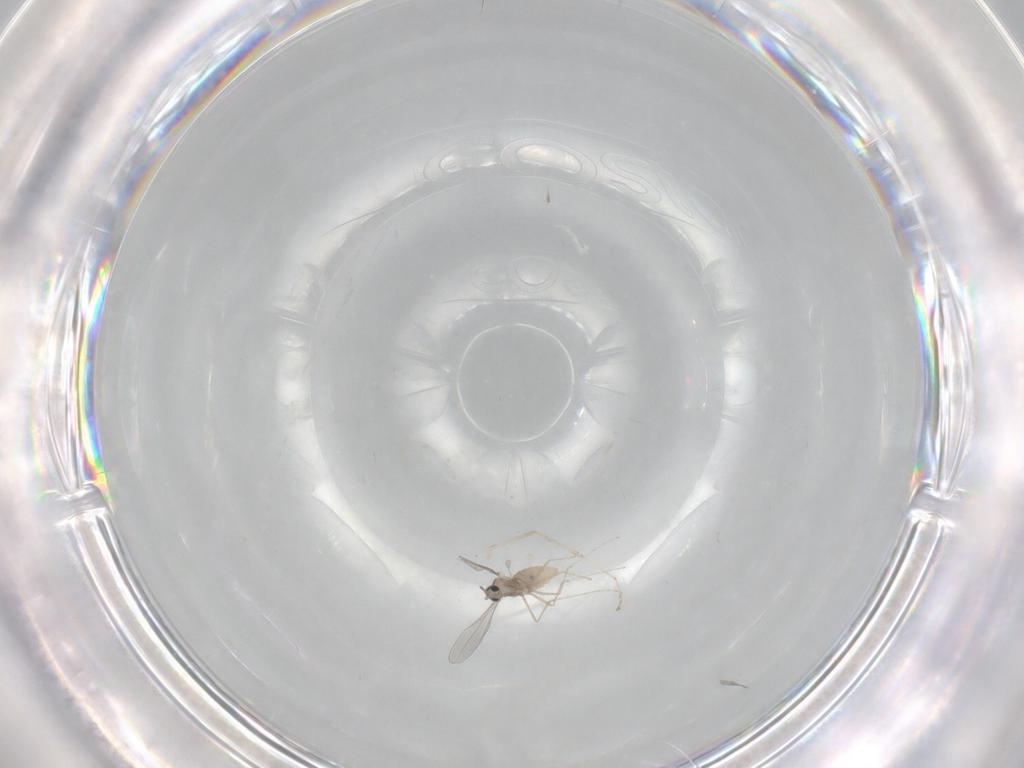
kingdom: Animalia
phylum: Arthropoda
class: Insecta
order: Diptera
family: Cecidomyiidae
